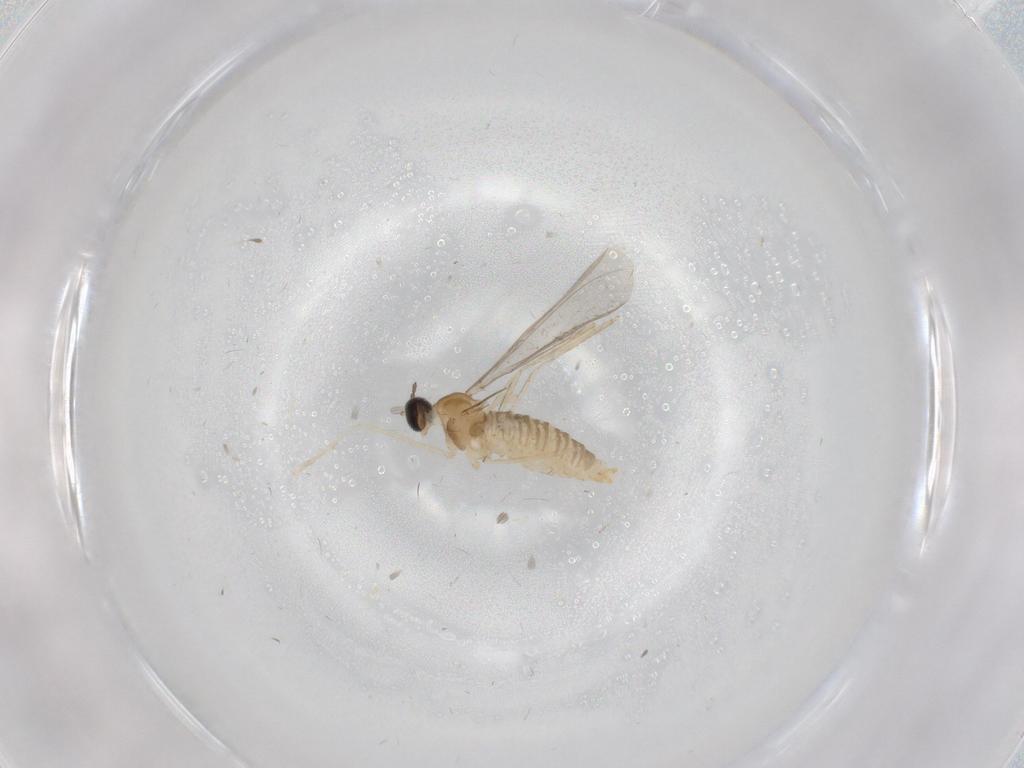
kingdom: Animalia
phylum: Arthropoda
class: Insecta
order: Diptera
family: Cecidomyiidae
